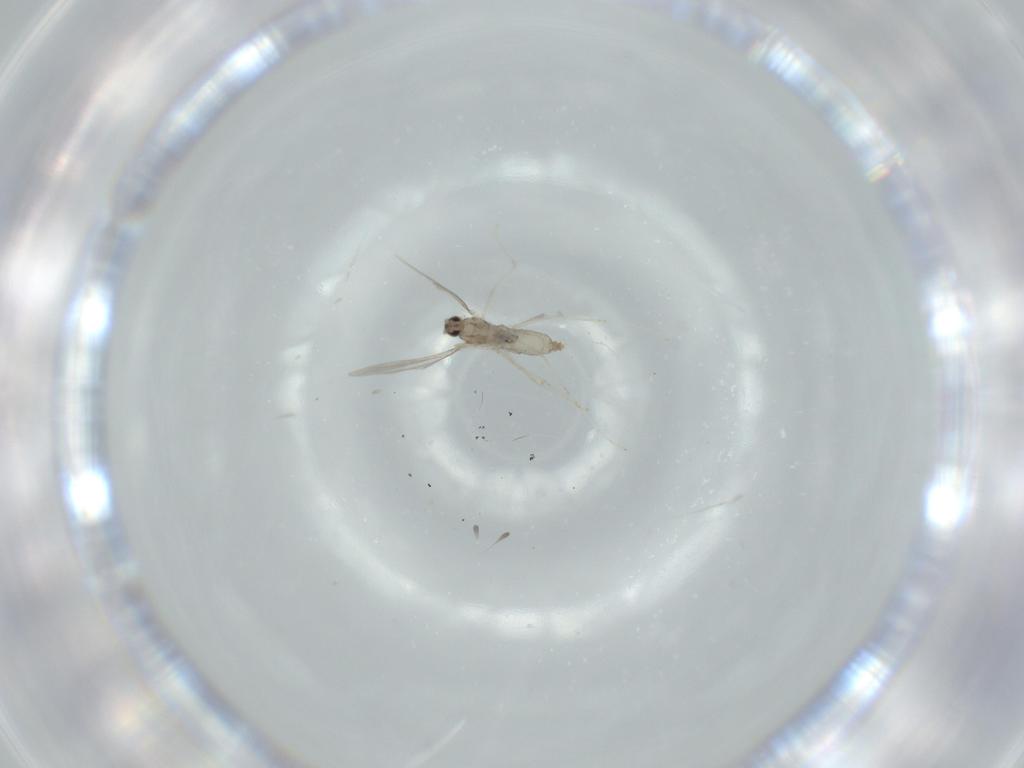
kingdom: Animalia
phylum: Arthropoda
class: Insecta
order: Diptera
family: Cecidomyiidae
